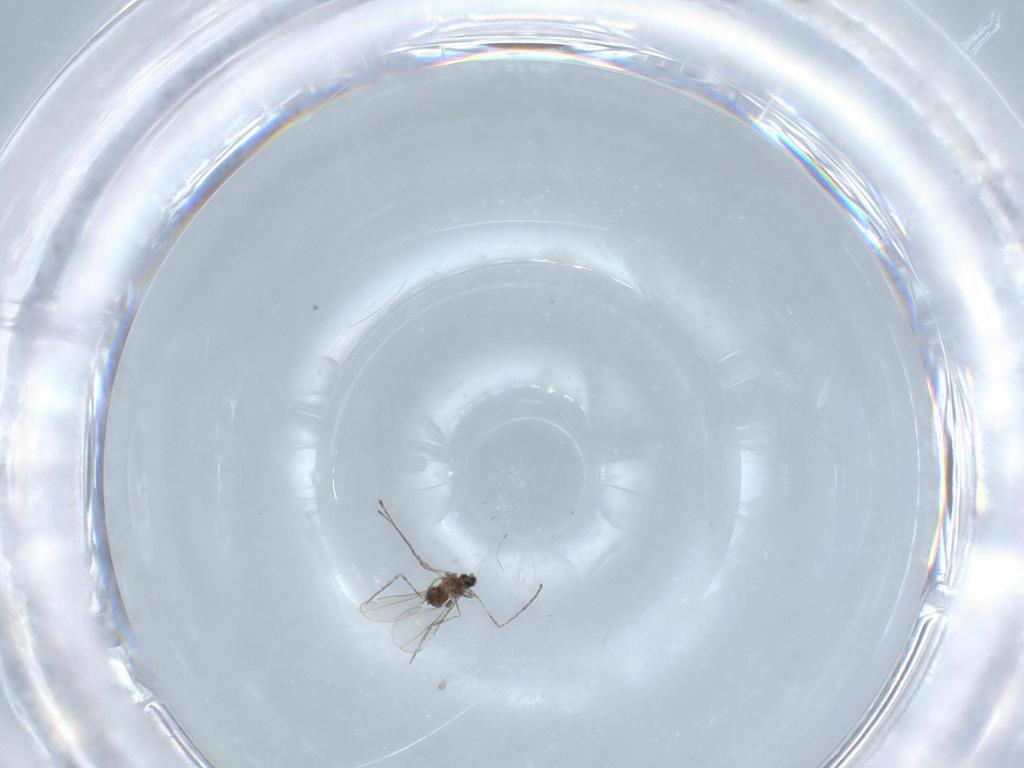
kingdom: Animalia
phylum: Arthropoda
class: Insecta
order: Diptera
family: Cecidomyiidae
